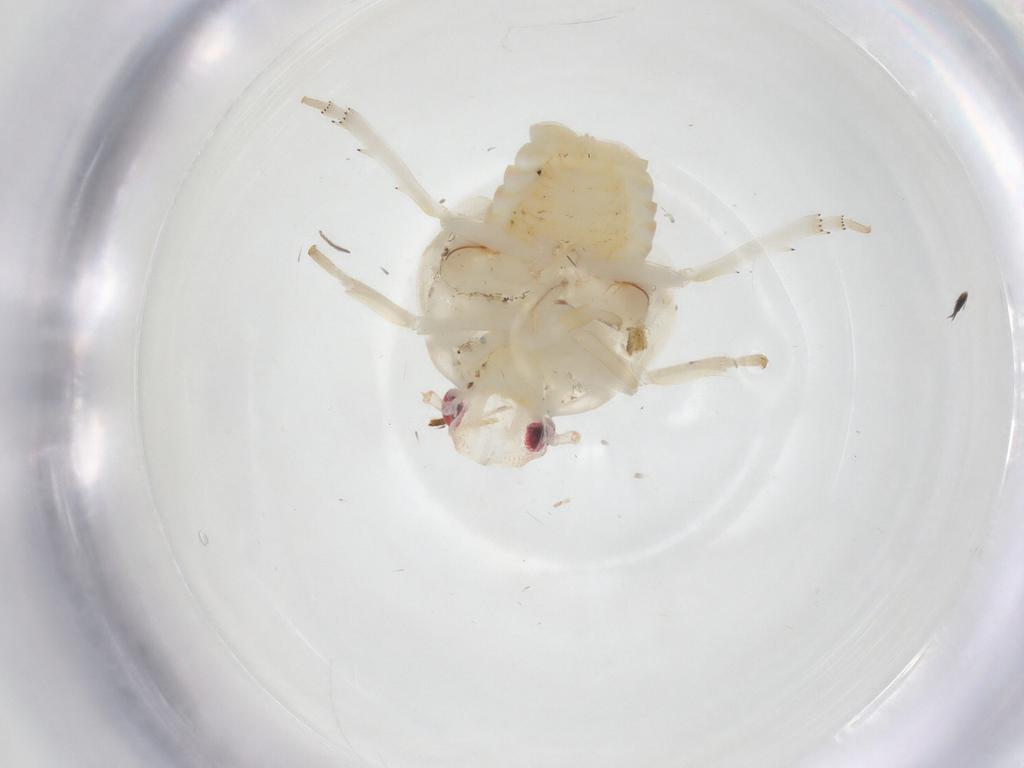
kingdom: Animalia
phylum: Arthropoda
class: Insecta
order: Hemiptera
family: Fulgoroidea_incertae_sedis
